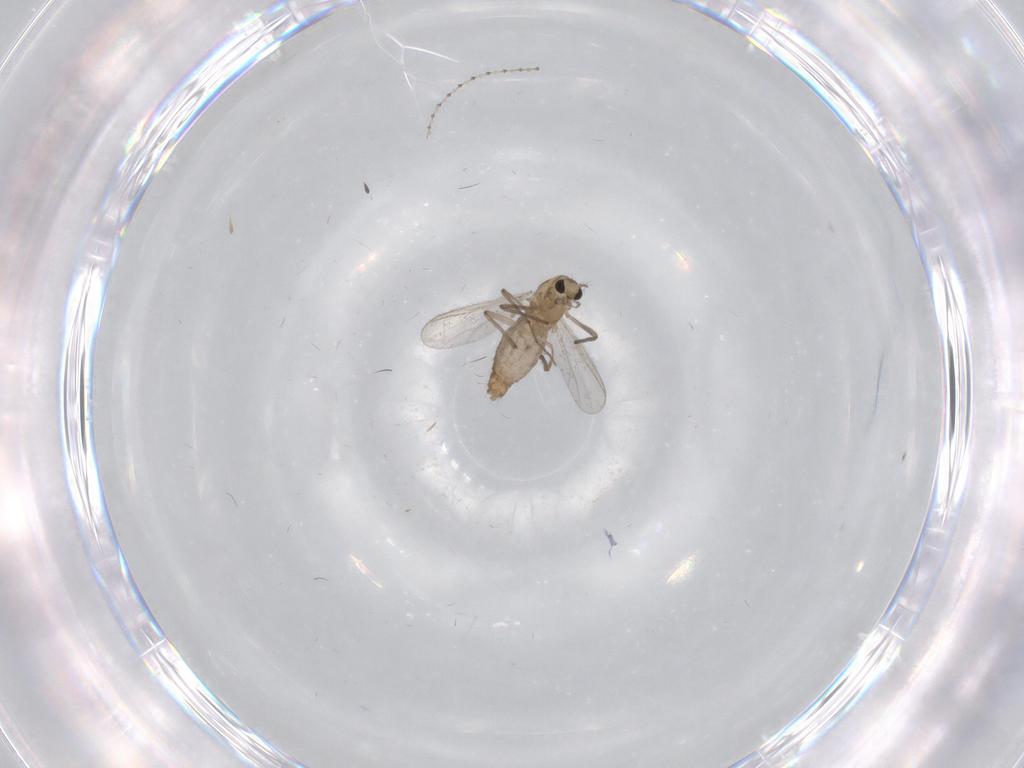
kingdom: Animalia
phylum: Arthropoda
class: Insecta
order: Diptera
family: Chironomidae
